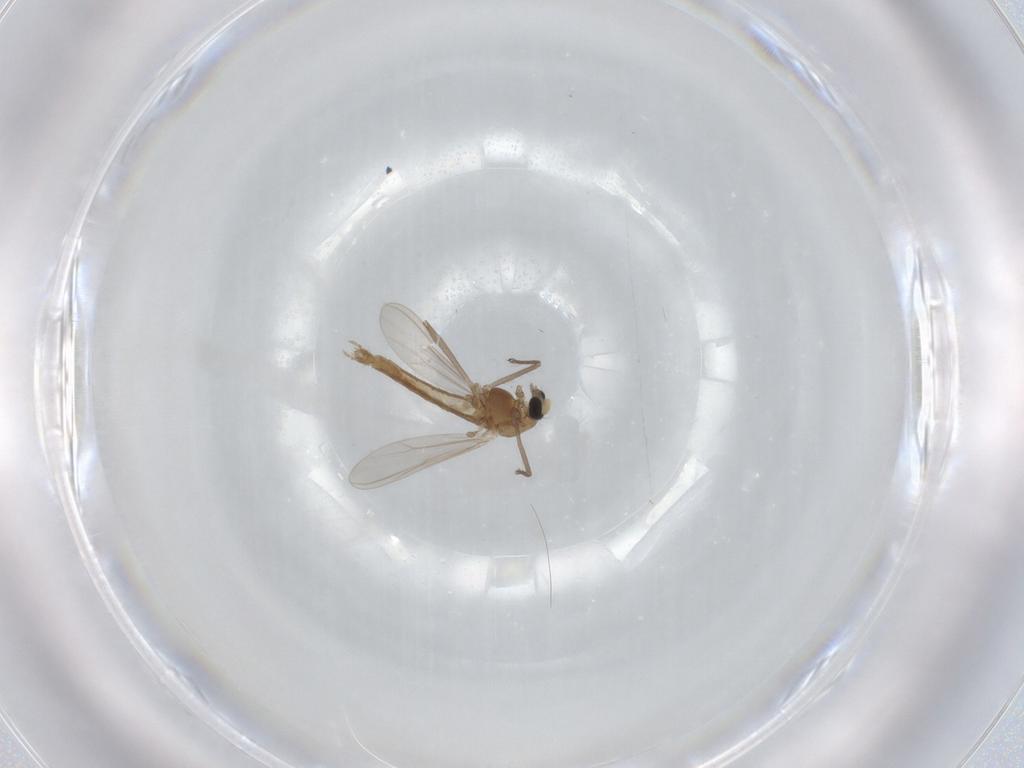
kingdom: Animalia
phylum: Arthropoda
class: Insecta
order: Diptera
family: Chironomidae
